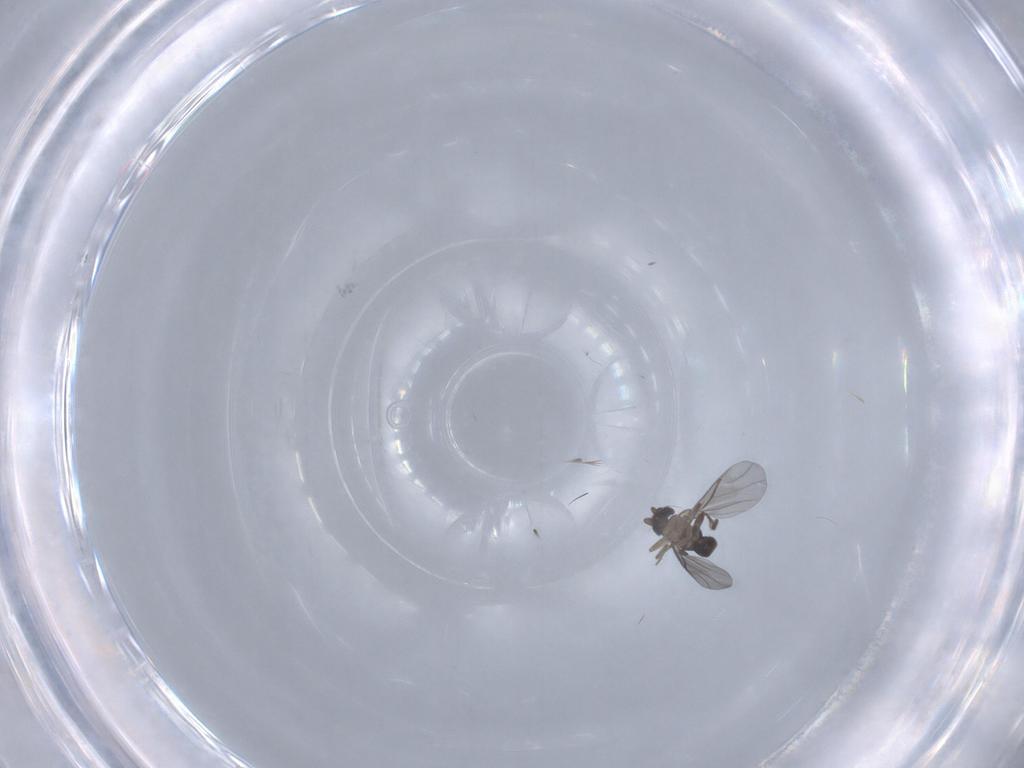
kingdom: Animalia
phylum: Arthropoda
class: Insecta
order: Diptera
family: Cecidomyiidae
